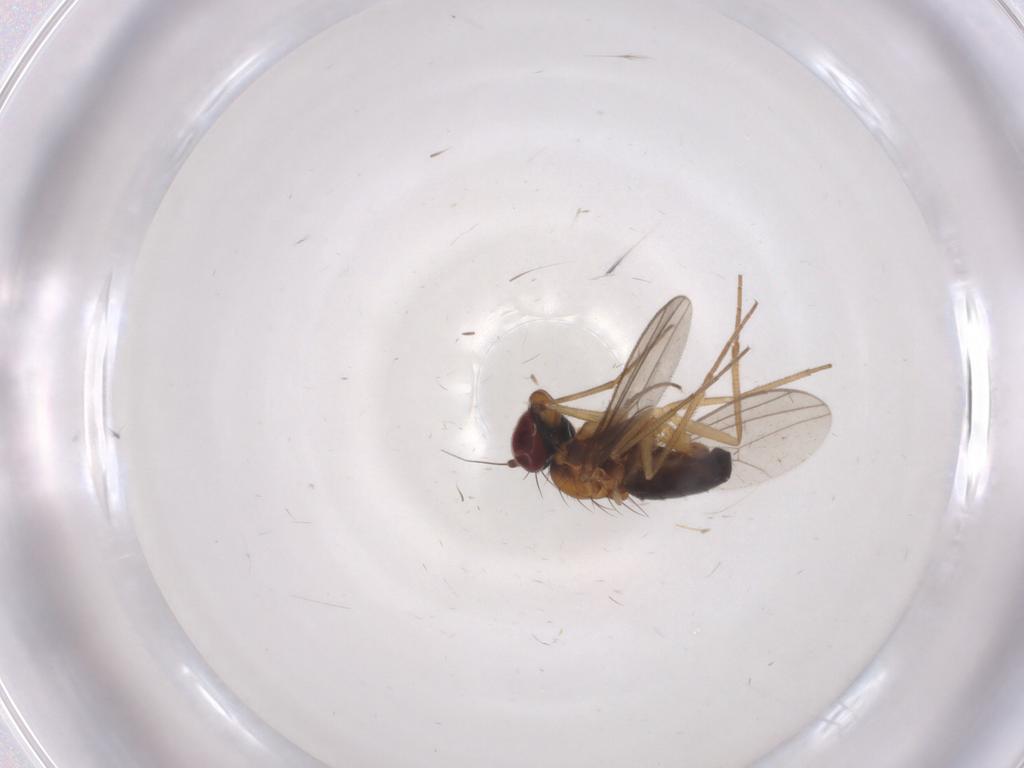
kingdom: Animalia
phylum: Arthropoda
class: Insecta
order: Diptera
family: Dolichopodidae
